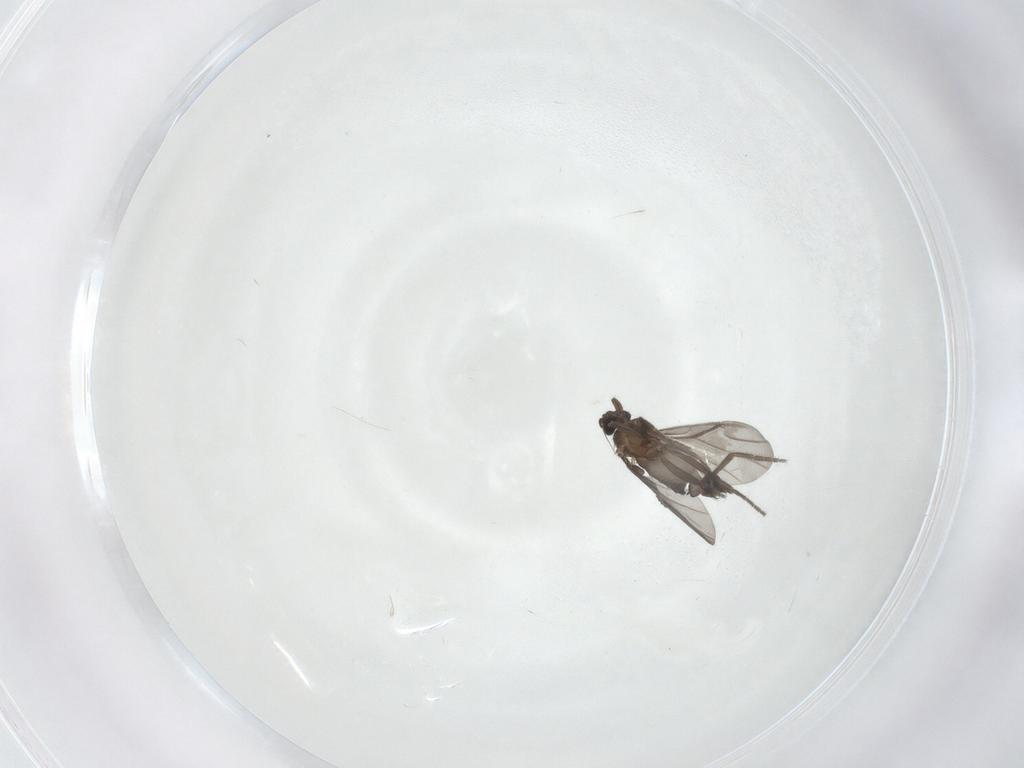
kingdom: Animalia
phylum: Arthropoda
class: Insecta
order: Diptera
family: Phoridae
